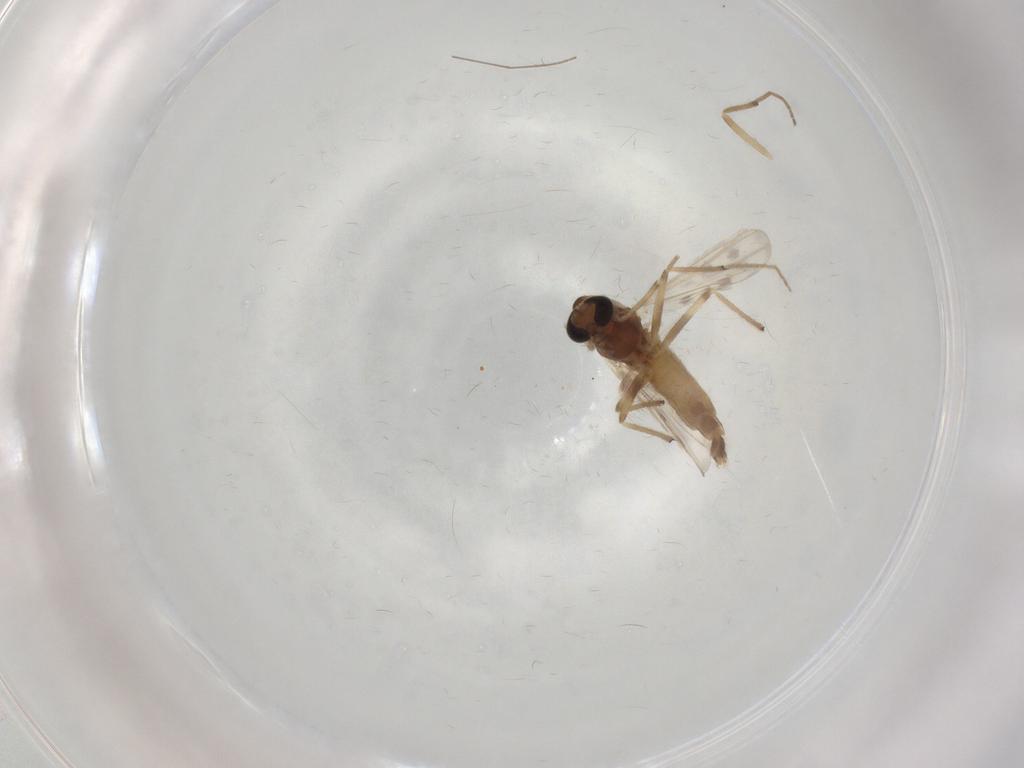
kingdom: Animalia
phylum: Arthropoda
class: Insecta
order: Diptera
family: Chironomidae
